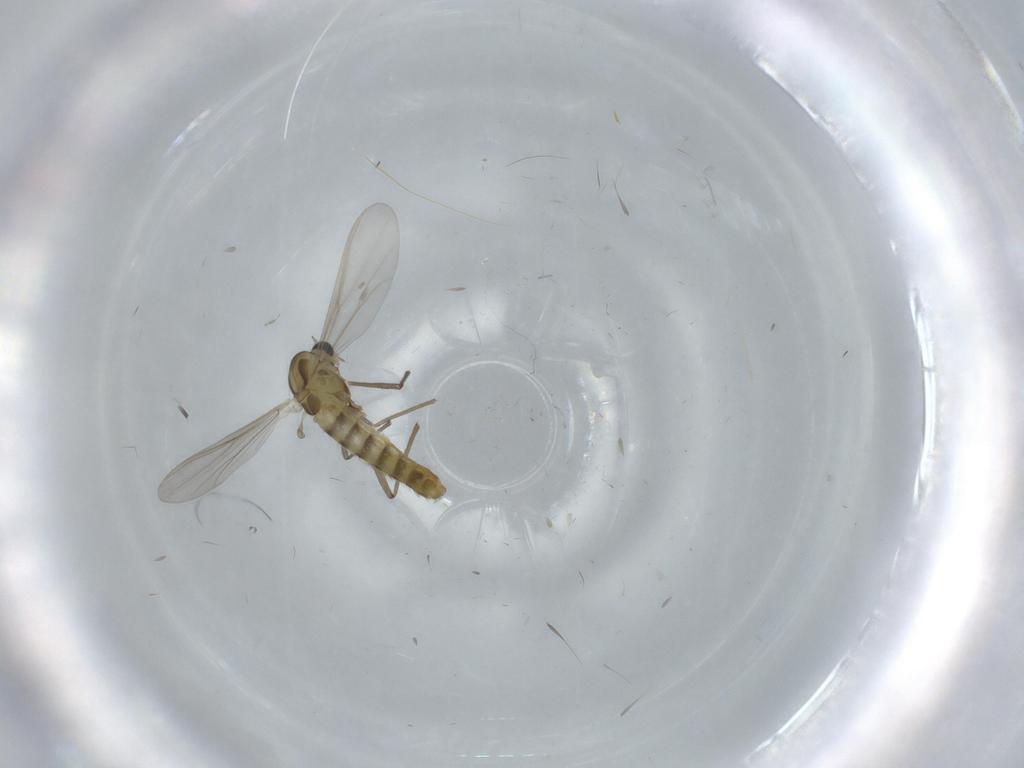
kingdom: Animalia
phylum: Arthropoda
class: Insecta
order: Diptera
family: Chironomidae
